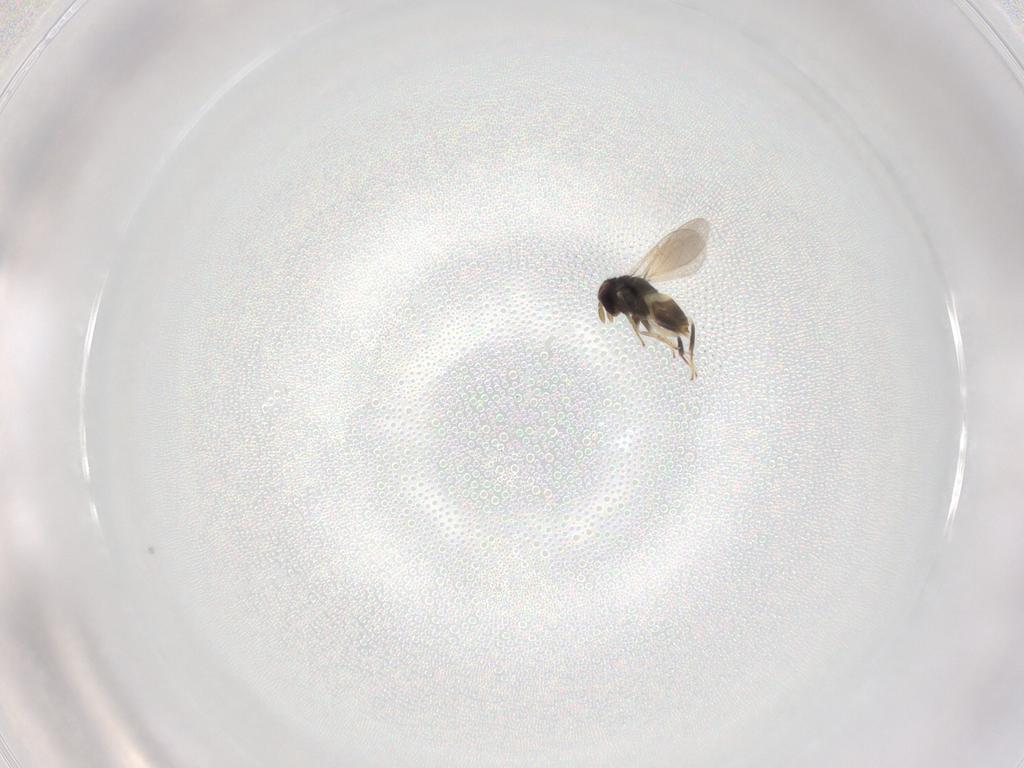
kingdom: Animalia
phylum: Arthropoda
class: Insecta
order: Hymenoptera
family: Aphelinidae
